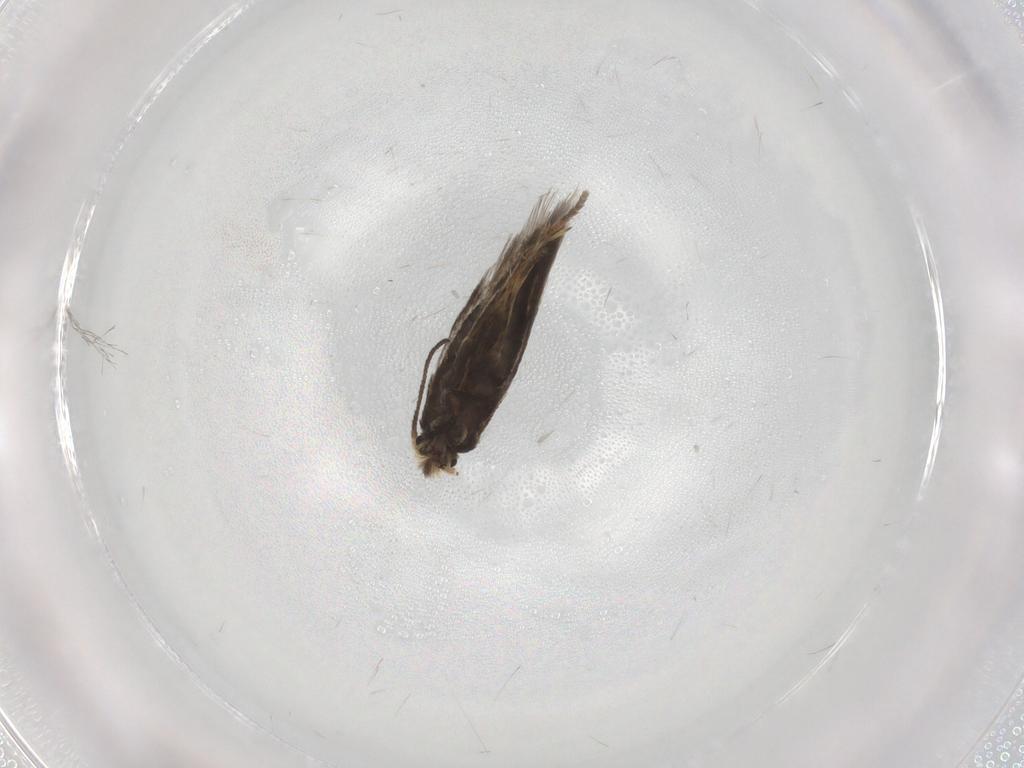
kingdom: Animalia
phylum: Arthropoda
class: Insecta
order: Lepidoptera
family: Nepticulidae
